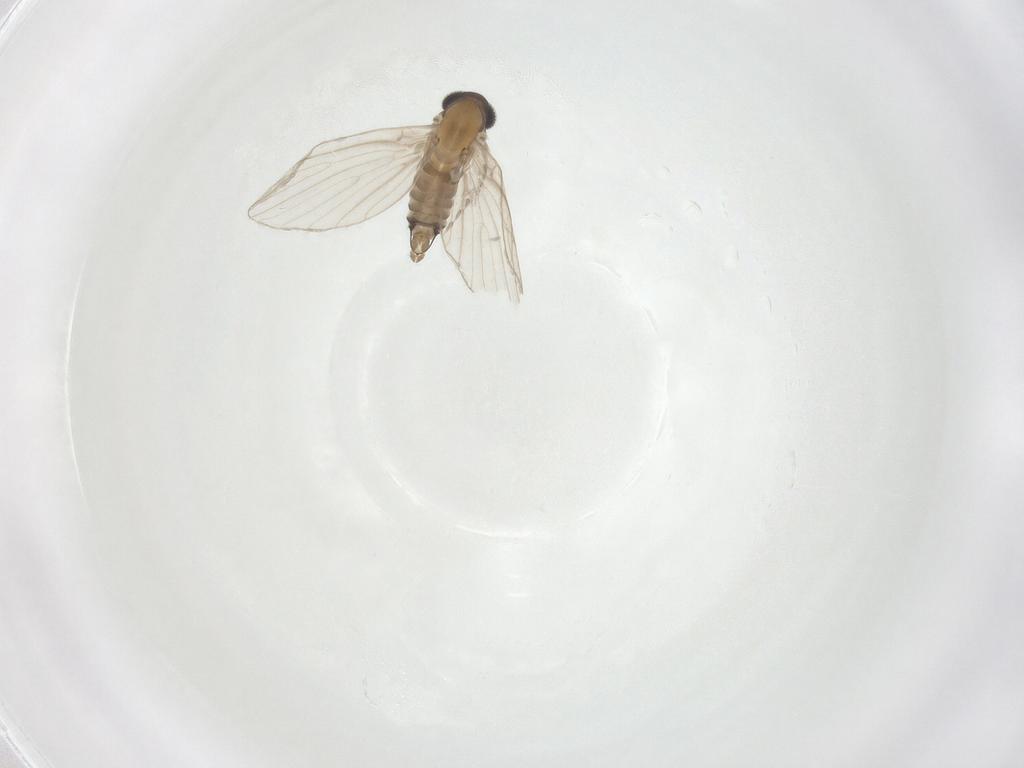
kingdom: Animalia
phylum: Arthropoda
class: Insecta
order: Diptera
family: Psychodidae
